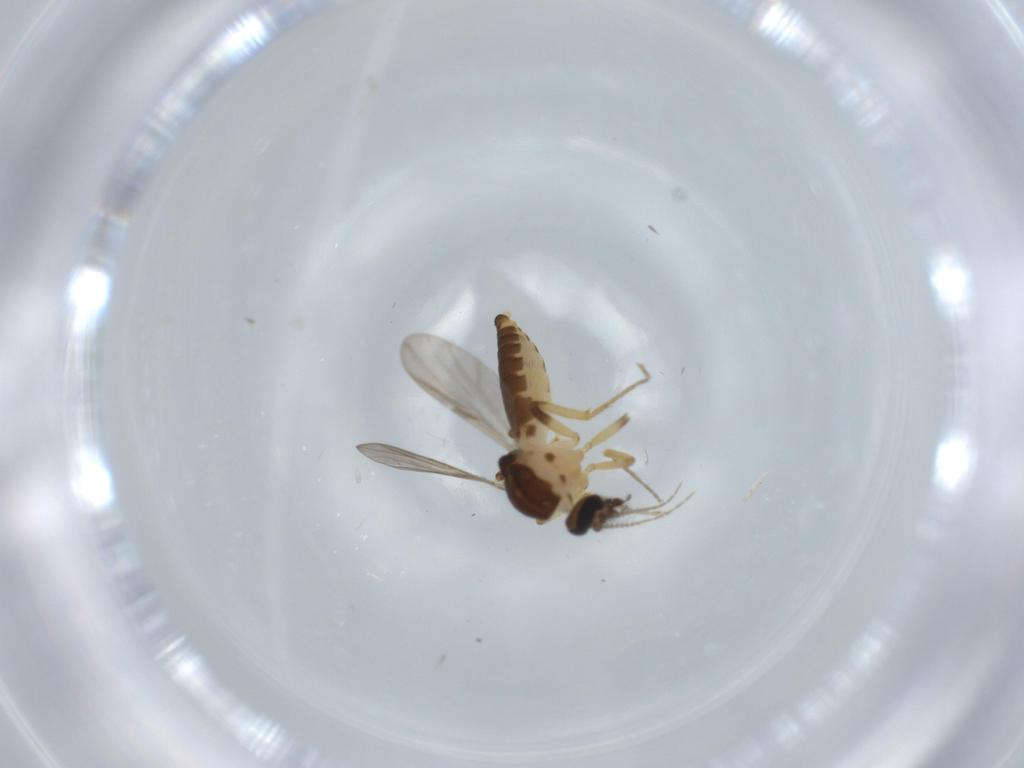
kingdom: Animalia
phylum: Arthropoda
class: Insecta
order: Diptera
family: Ceratopogonidae
